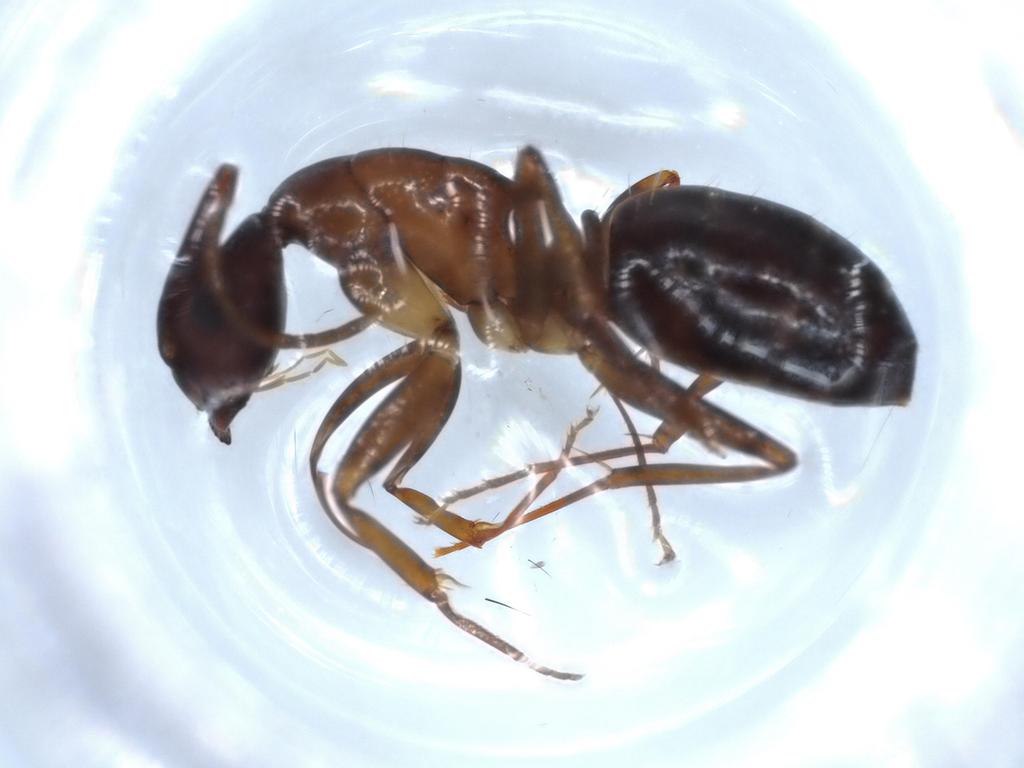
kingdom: Animalia
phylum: Arthropoda
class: Insecta
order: Hymenoptera
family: Formicidae
